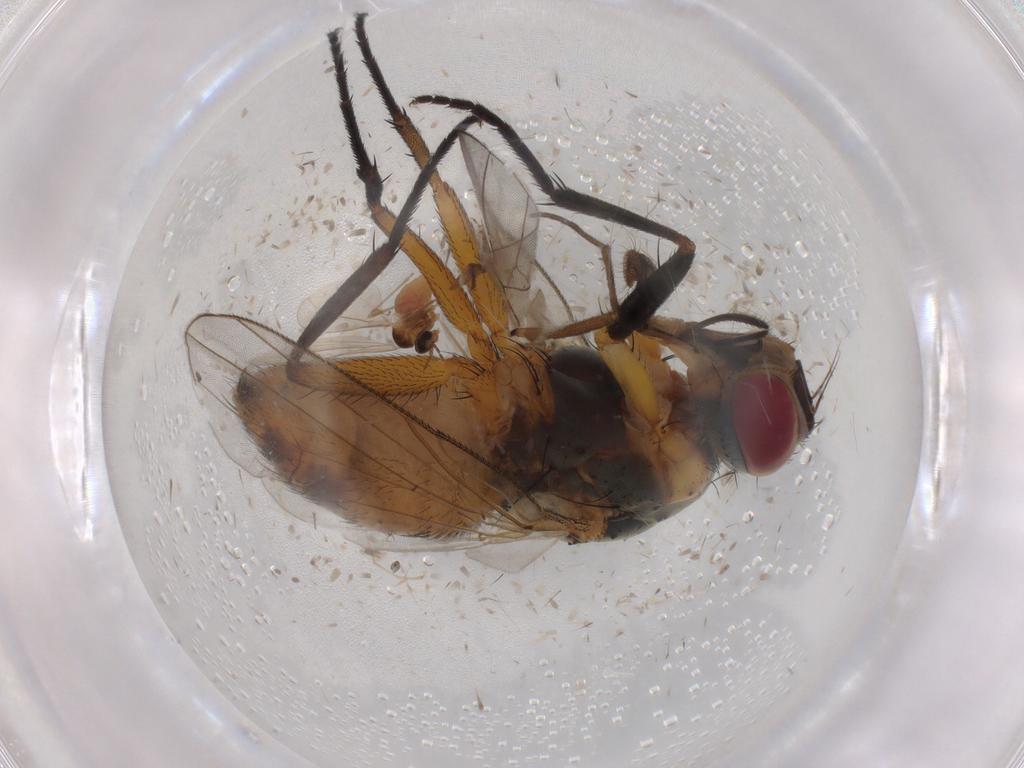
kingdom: Animalia
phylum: Arthropoda
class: Insecta
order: Diptera
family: Muscidae
